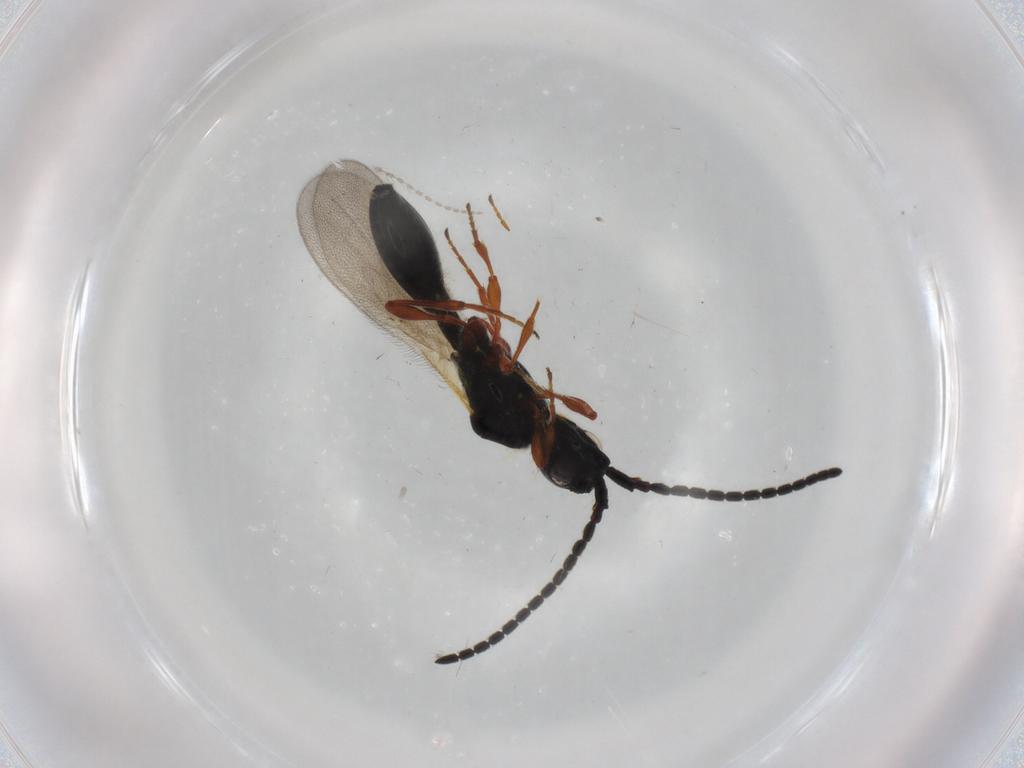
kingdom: Animalia
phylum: Arthropoda
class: Insecta
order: Hymenoptera
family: Diapriidae
